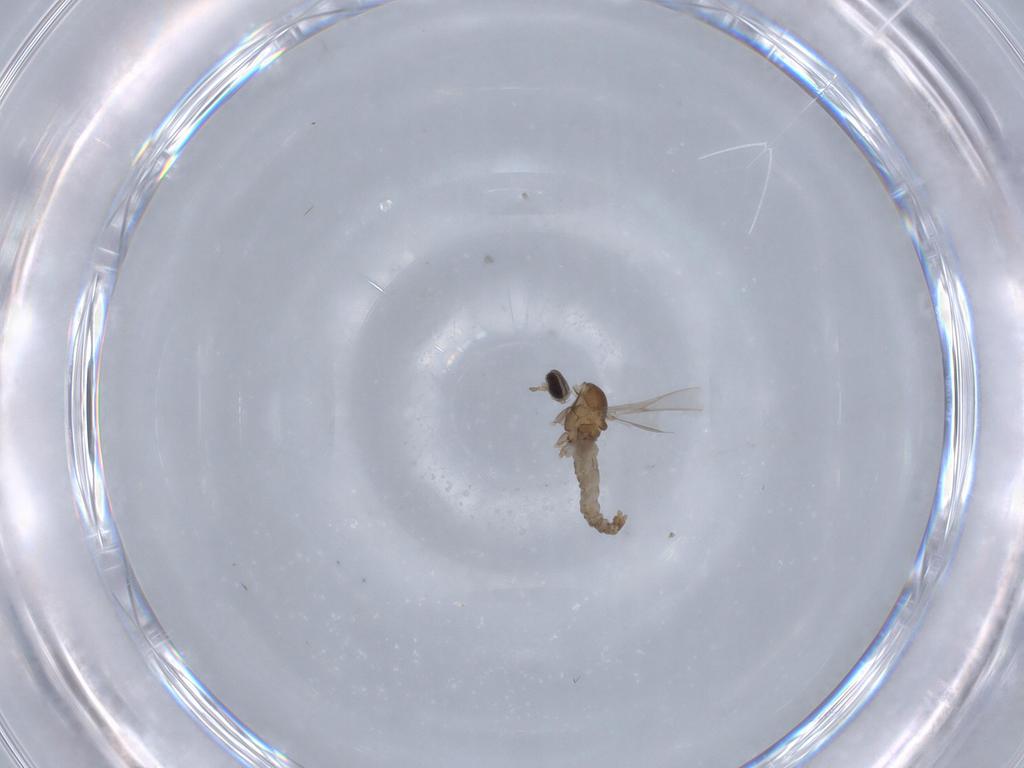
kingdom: Animalia
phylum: Arthropoda
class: Insecta
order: Diptera
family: Cecidomyiidae
